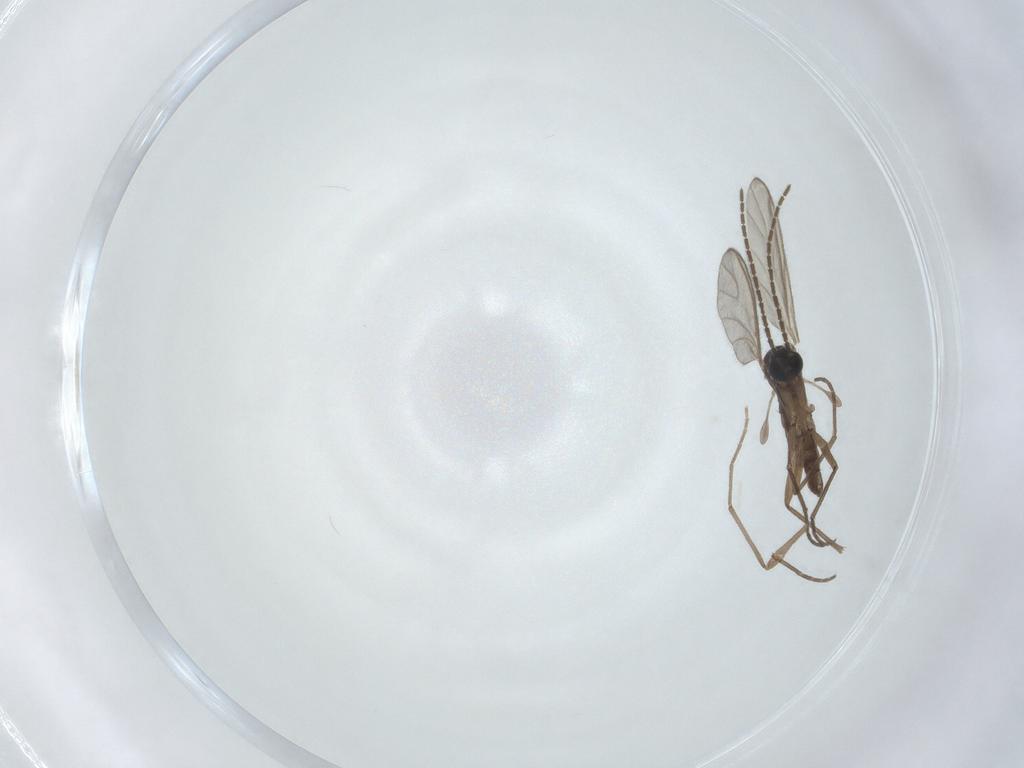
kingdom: Animalia
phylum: Arthropoda
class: Insecta
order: Diptera
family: Sciaridae
